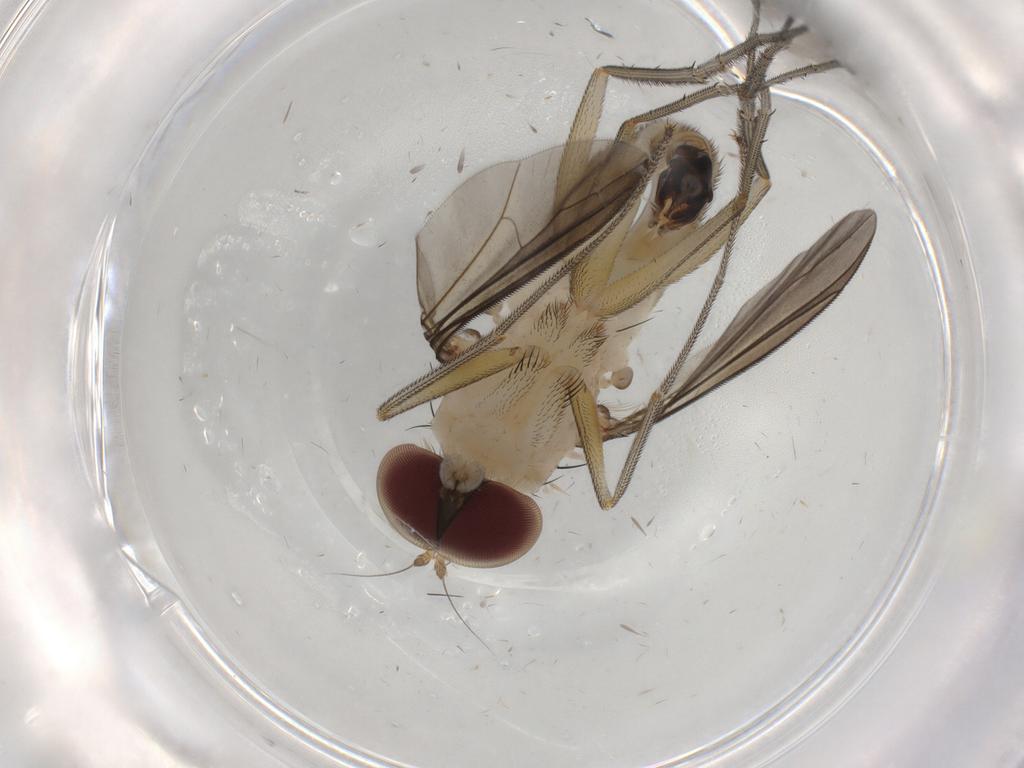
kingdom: Animalia
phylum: Arthropoda
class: Insecta
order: Diptera
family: Dolichopodidae
